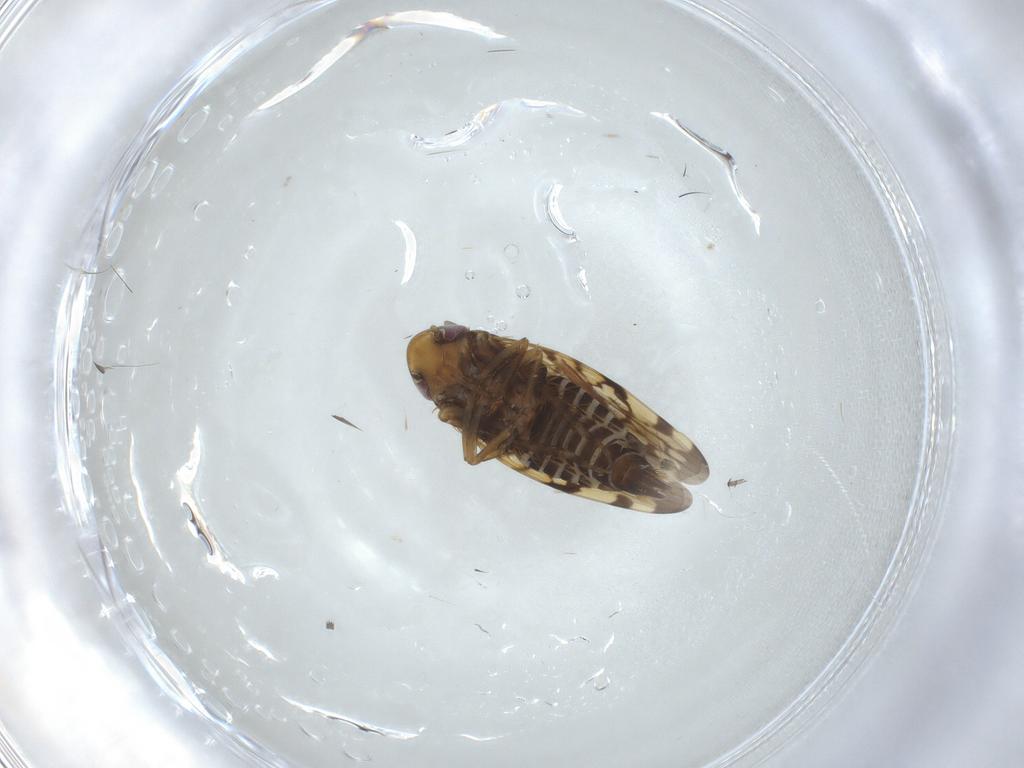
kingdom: Animalia
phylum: Arthropoda
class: Insecta
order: Hemiptera
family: Cicadellidae
